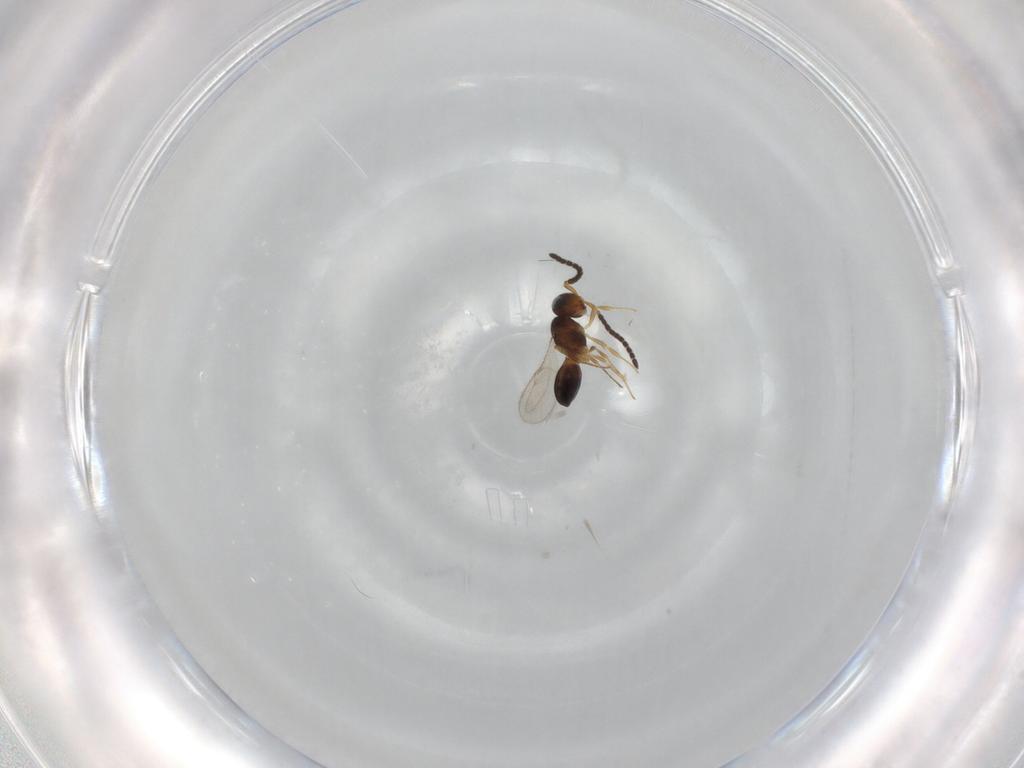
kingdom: Animalia
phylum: Arthropoda
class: Insecta
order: Hymenoptera
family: Scelionidae
